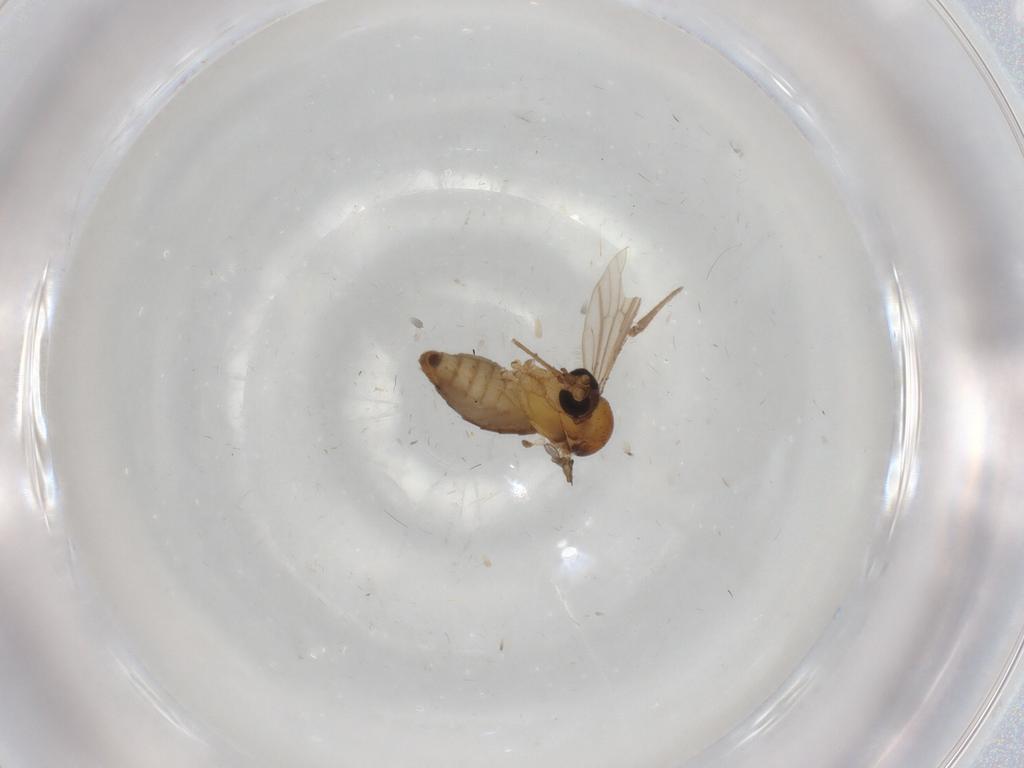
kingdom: Animalia
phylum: Arthropoda
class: Insecta
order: Diptera
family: Culicidae
